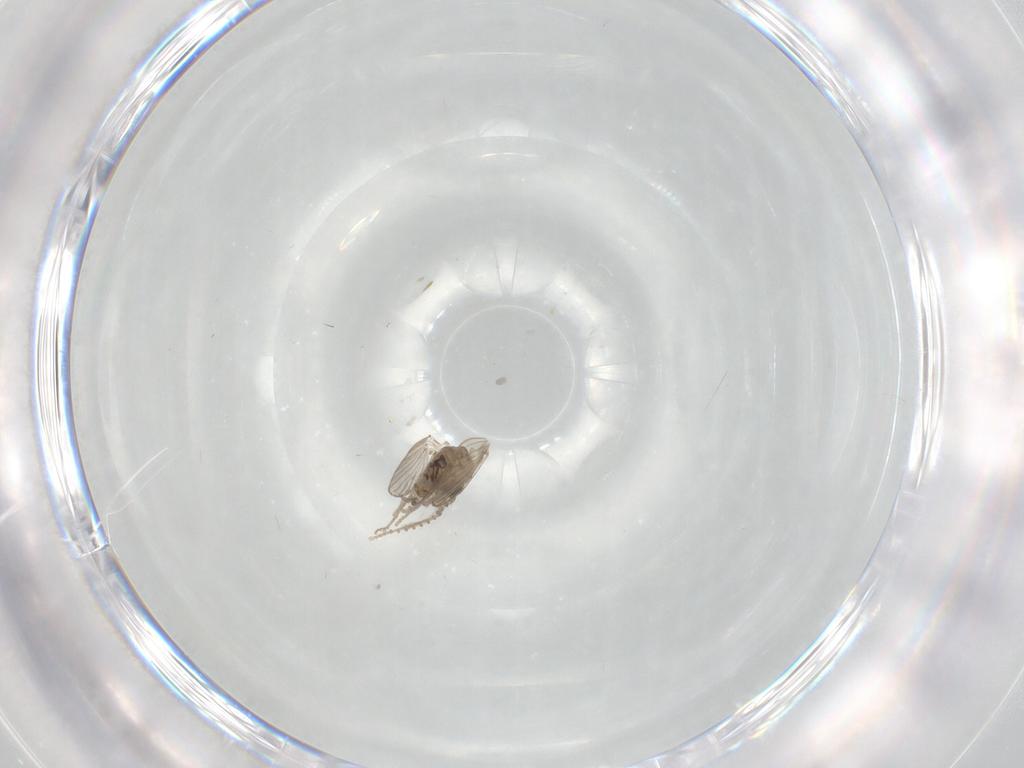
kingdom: Animalia
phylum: Arthropoda
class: Insecta
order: Diptera
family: Psychodidae
